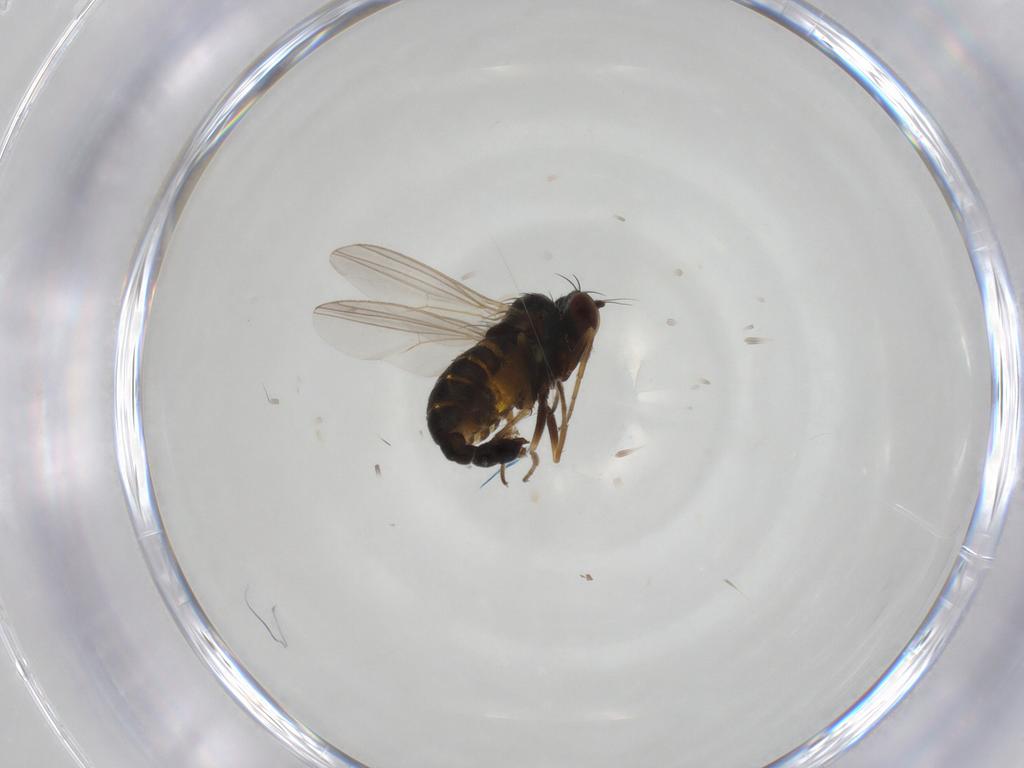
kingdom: Animalia
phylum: Arthropoda
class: Insecta
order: Diptera
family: Dolichopodidae
